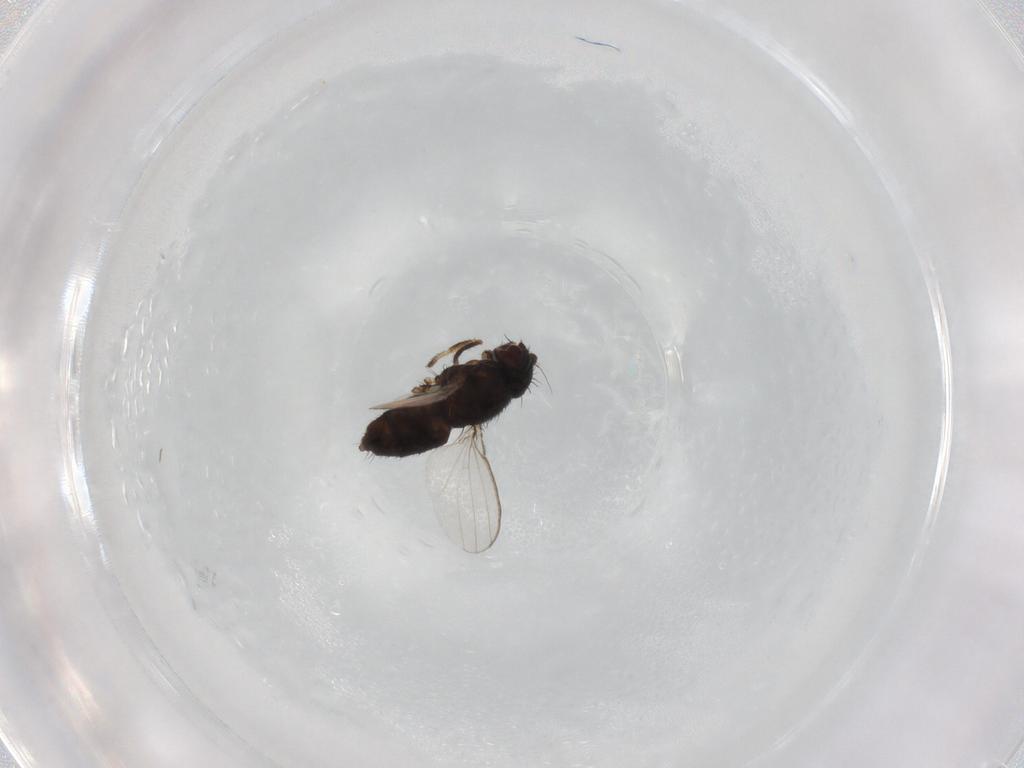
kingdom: Animalia
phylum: Arthropoda
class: Insecta
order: Diptera
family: Milichiidae
